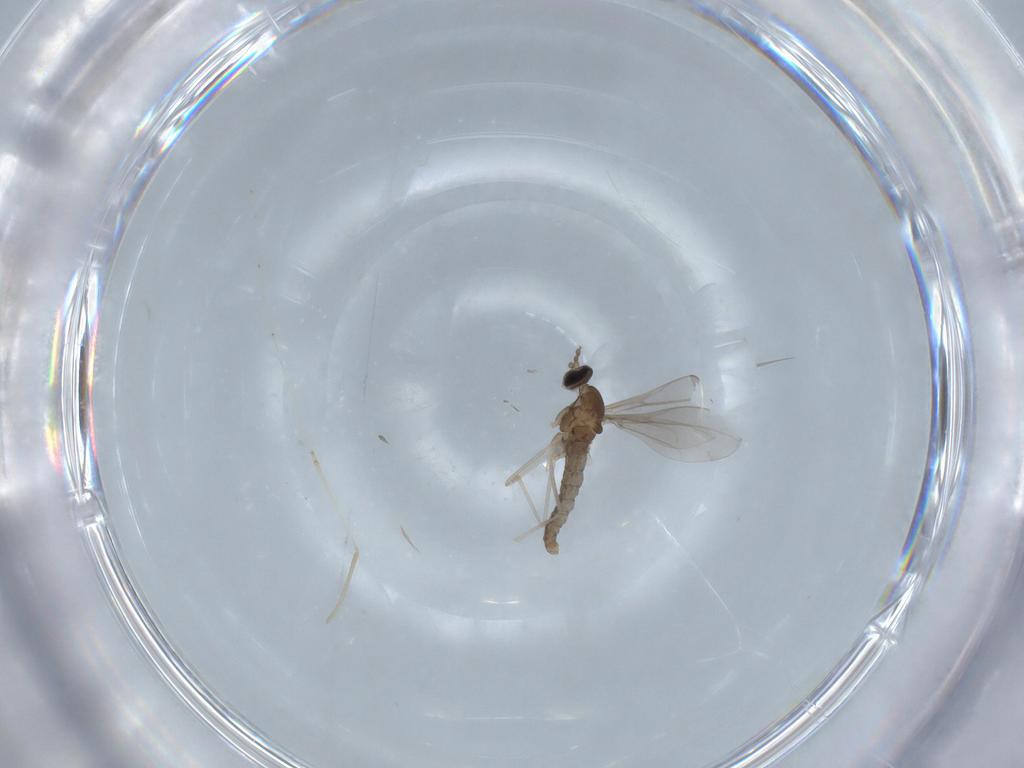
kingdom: Animalia
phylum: Arthropoda
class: Insecta
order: Diptera
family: Cecidomyiidae
